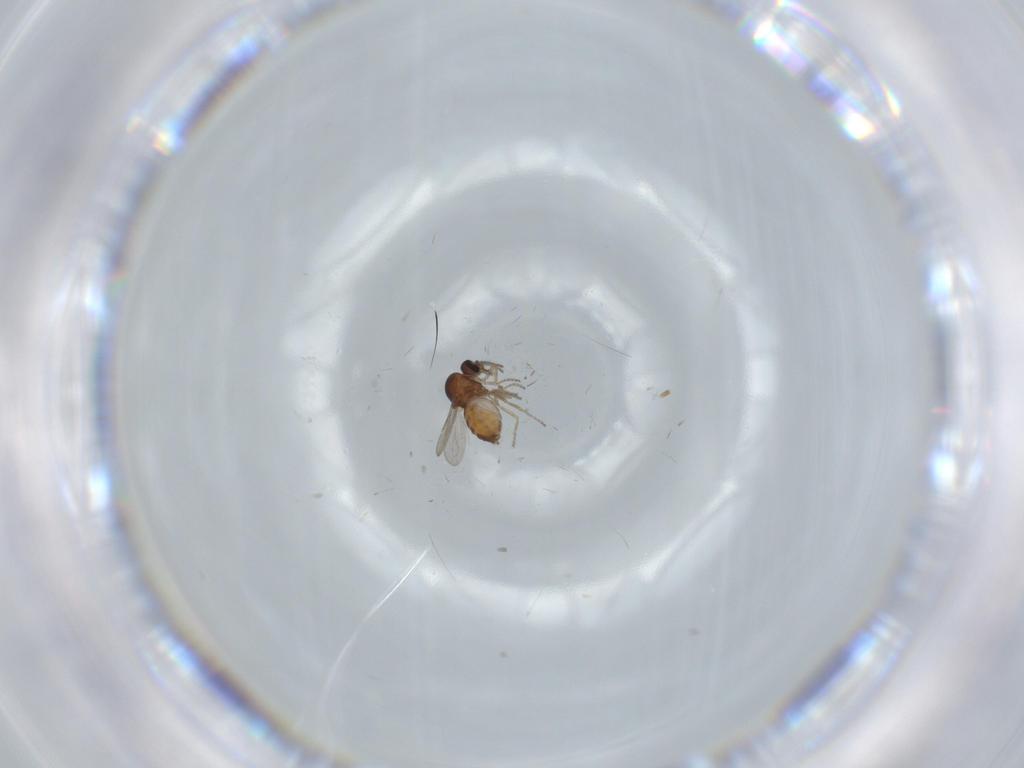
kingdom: Animalia
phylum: Arthropoda
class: Insecta
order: Diptera
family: Ceratopogonidae
